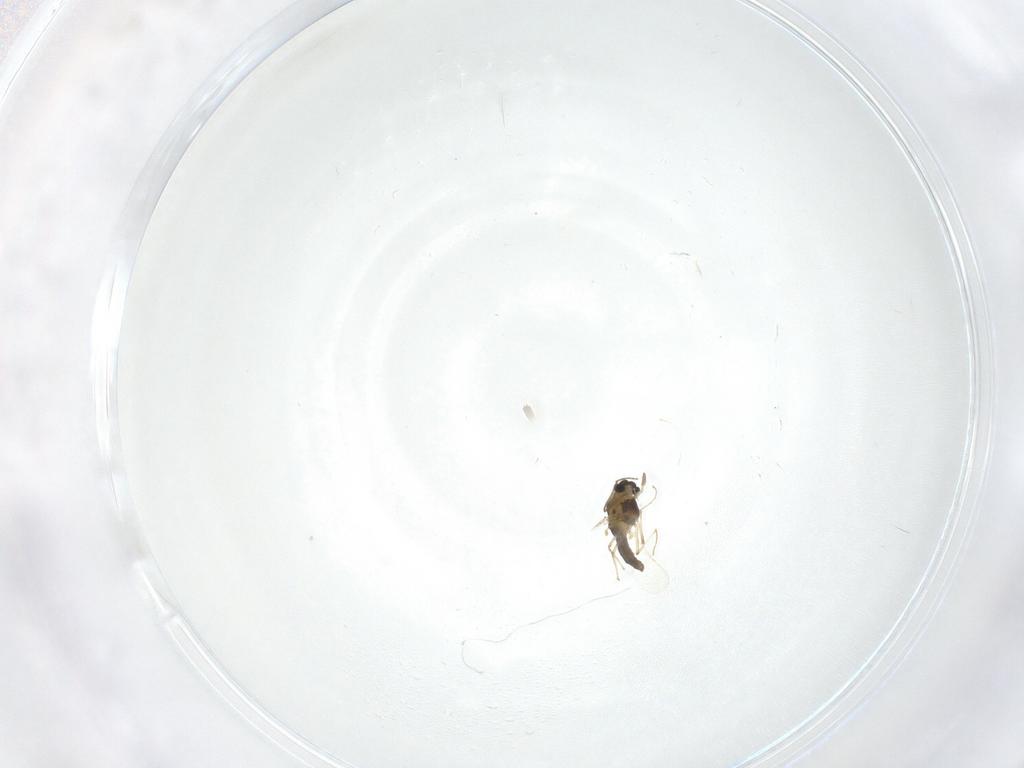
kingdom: Animalia
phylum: Arthropoda
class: Insecta
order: Diptera
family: Chironomidae
